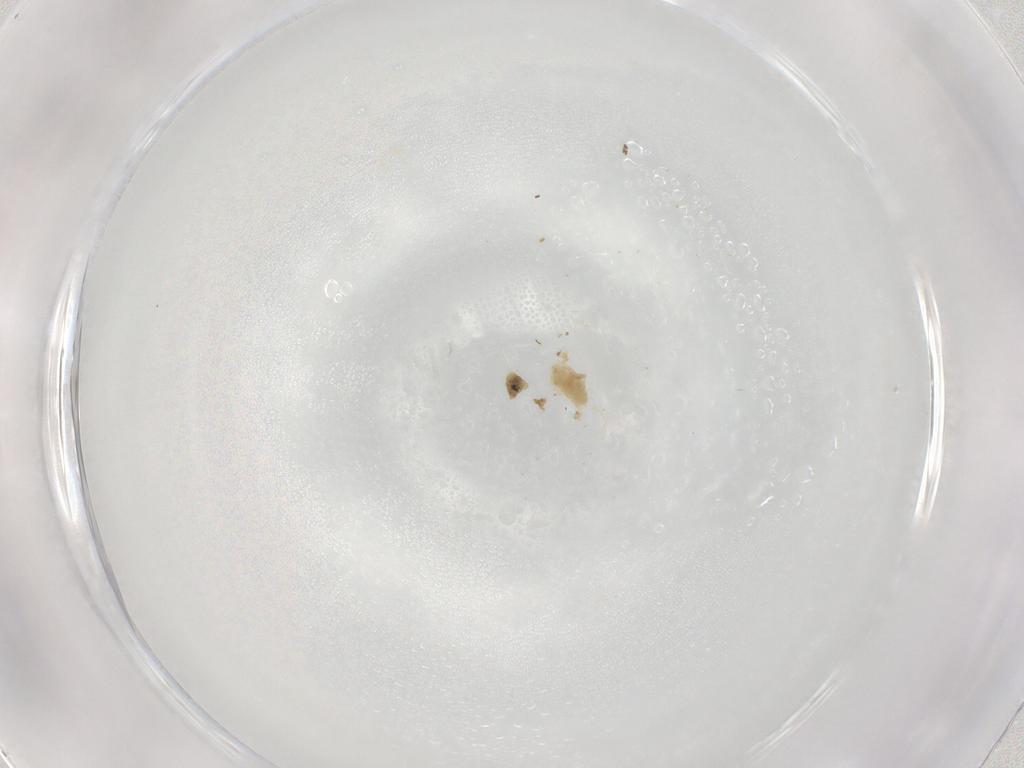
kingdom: Animalia
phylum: Arthropoda
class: Arachnida
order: Trombidiformes
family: Eupodidae
